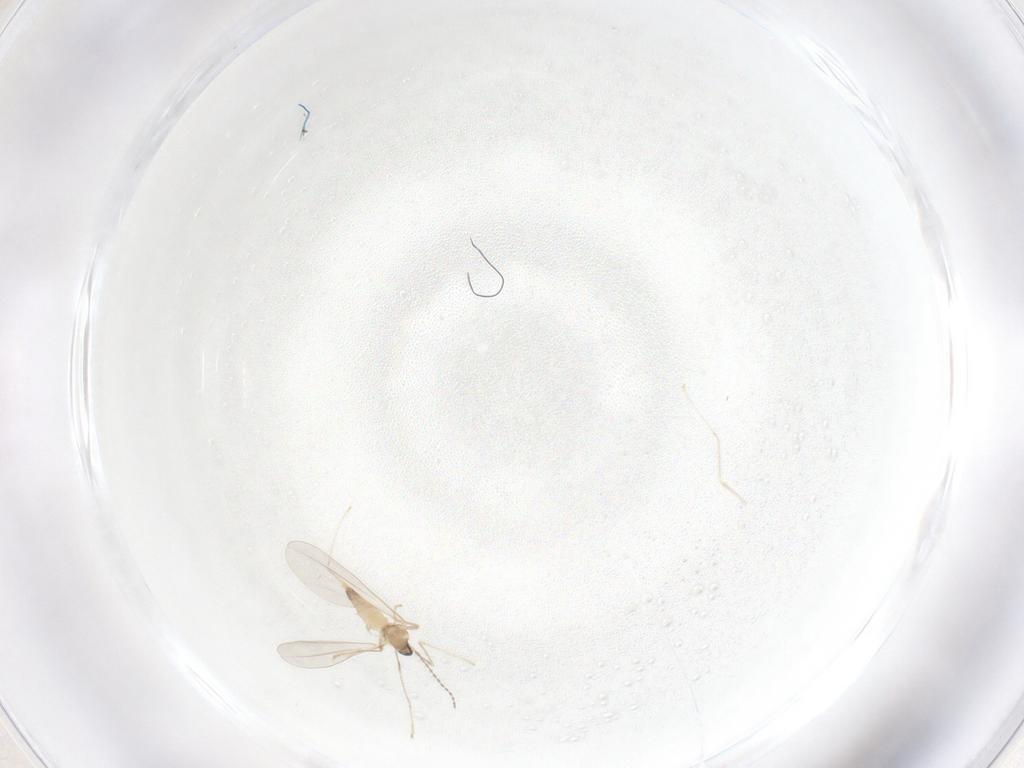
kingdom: Animalia
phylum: Arthropoda
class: Insecta
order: Diptera
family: Cecidomyiidae
